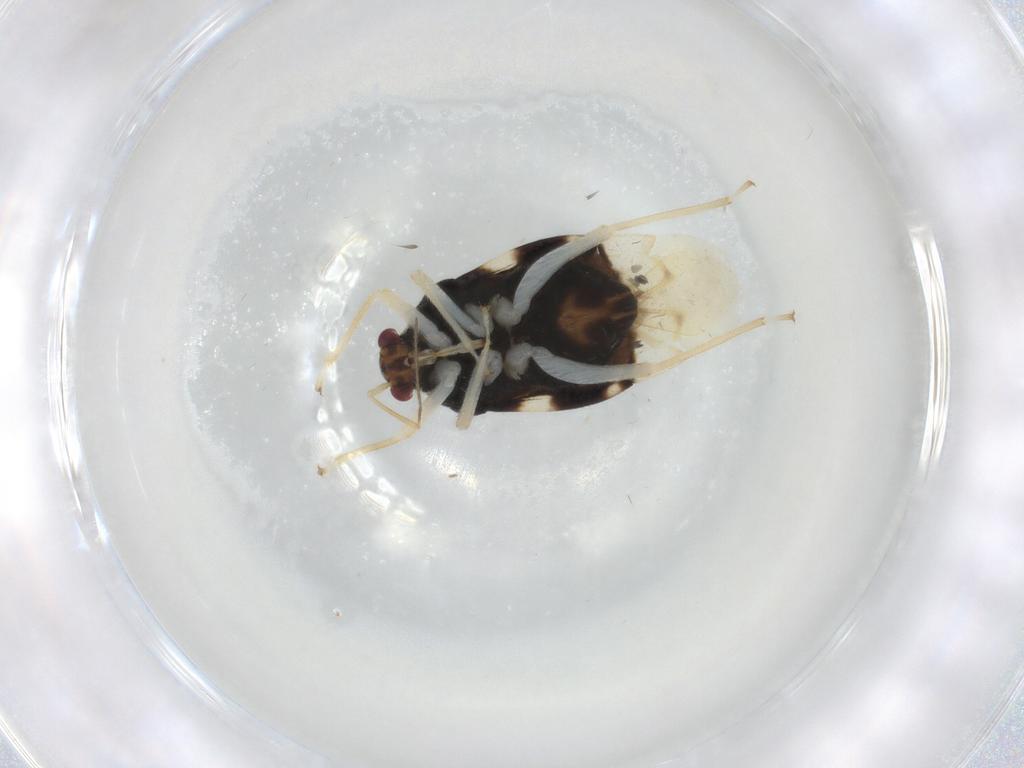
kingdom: Animalia
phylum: Arthropoda
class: Insecta
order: Hemiptera
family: Miridae
